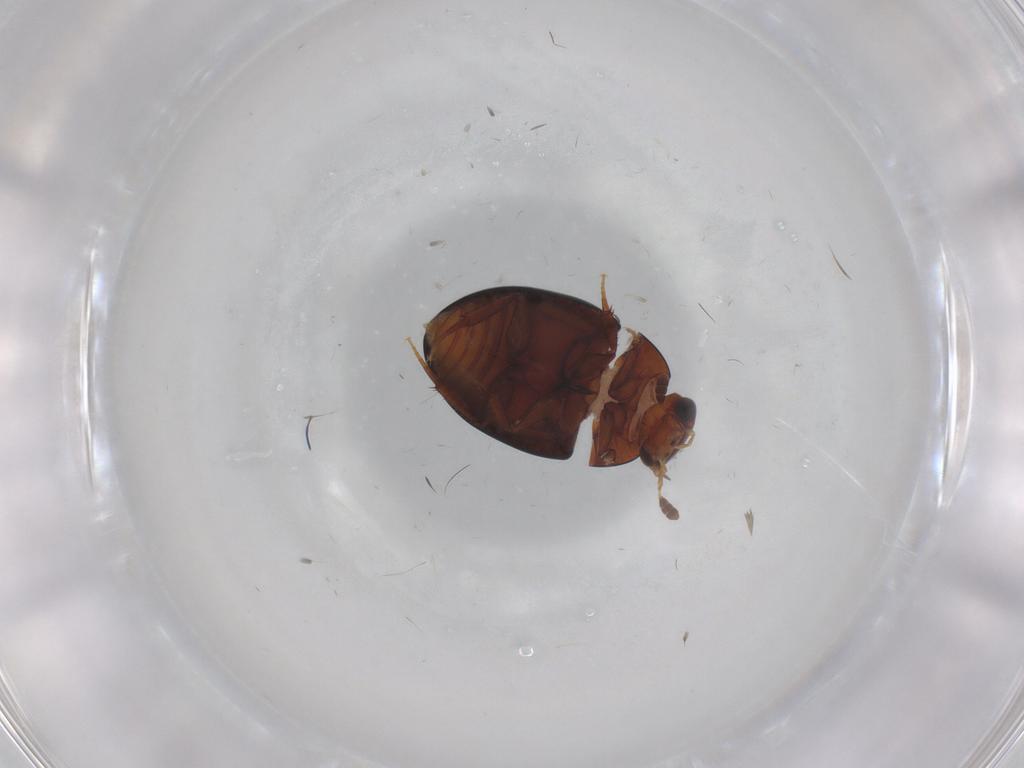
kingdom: Animalia
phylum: Arthropoda
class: Insecta
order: Coleoptera
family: Hydrophilidae
